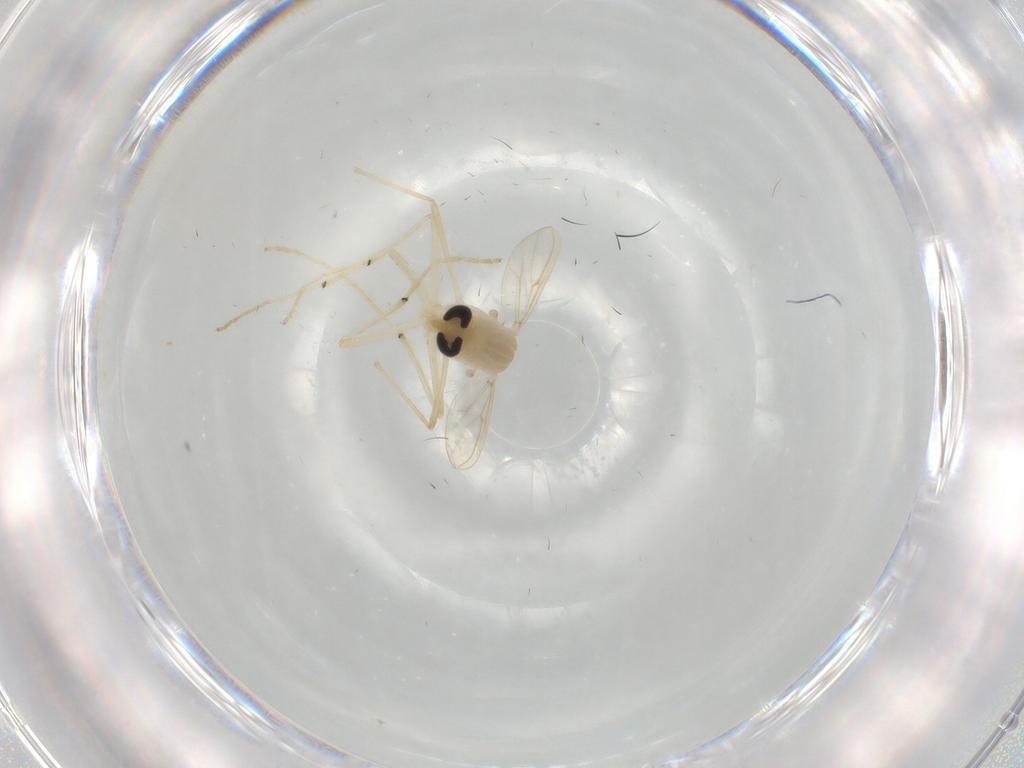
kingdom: Animalia
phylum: Arthropoda
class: Insecta
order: Diptera
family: Chironomidae
